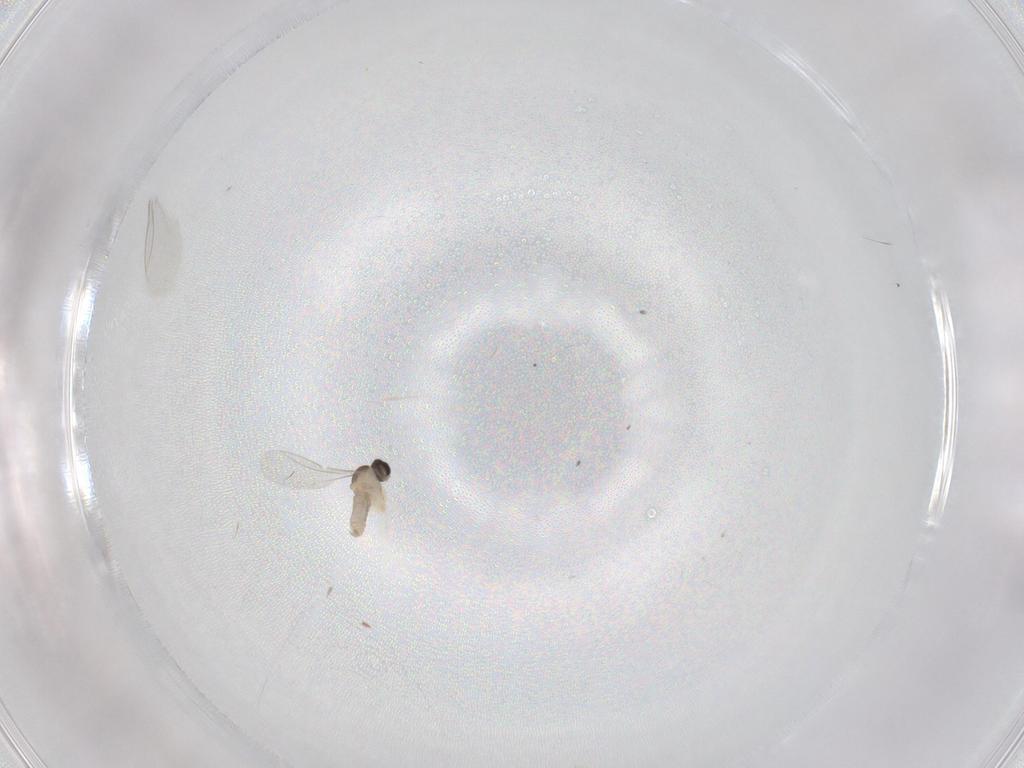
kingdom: Animalia
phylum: Arthropoda
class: Insecta
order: Diptera
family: Cecidomyiidae
